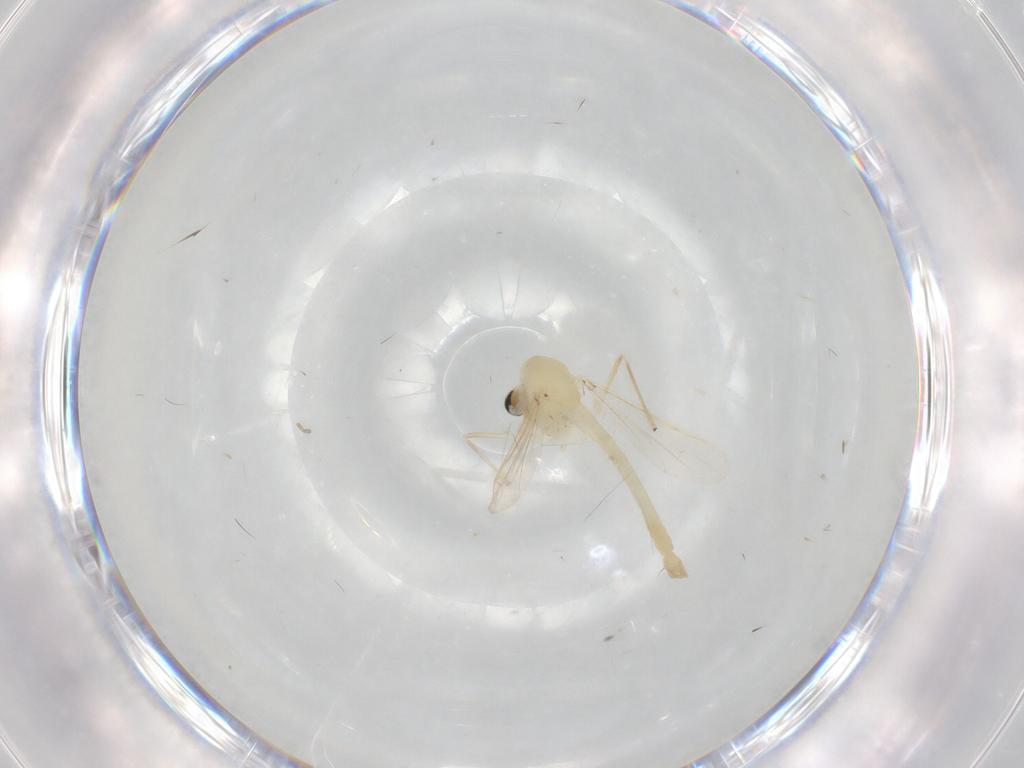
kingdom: Animalia
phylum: Arthropoda
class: Insecta
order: Diptera
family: Chironomidae
